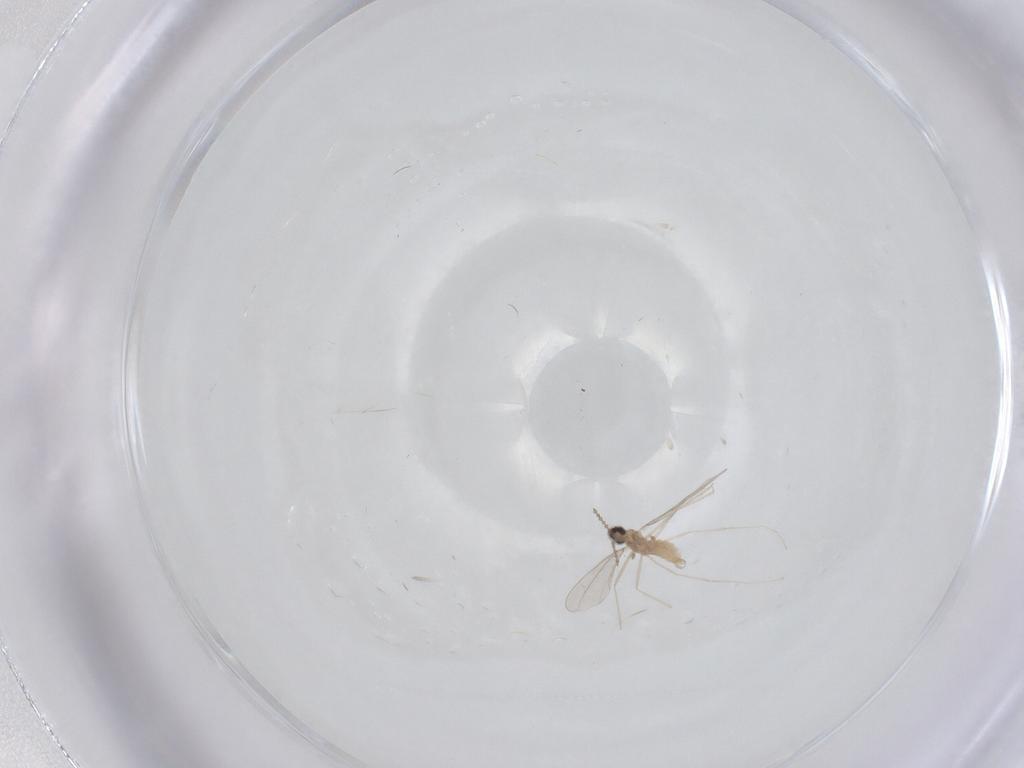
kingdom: Animalia
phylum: Arthropoda
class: Insecta
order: Diptera
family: Cecidomyiidae
